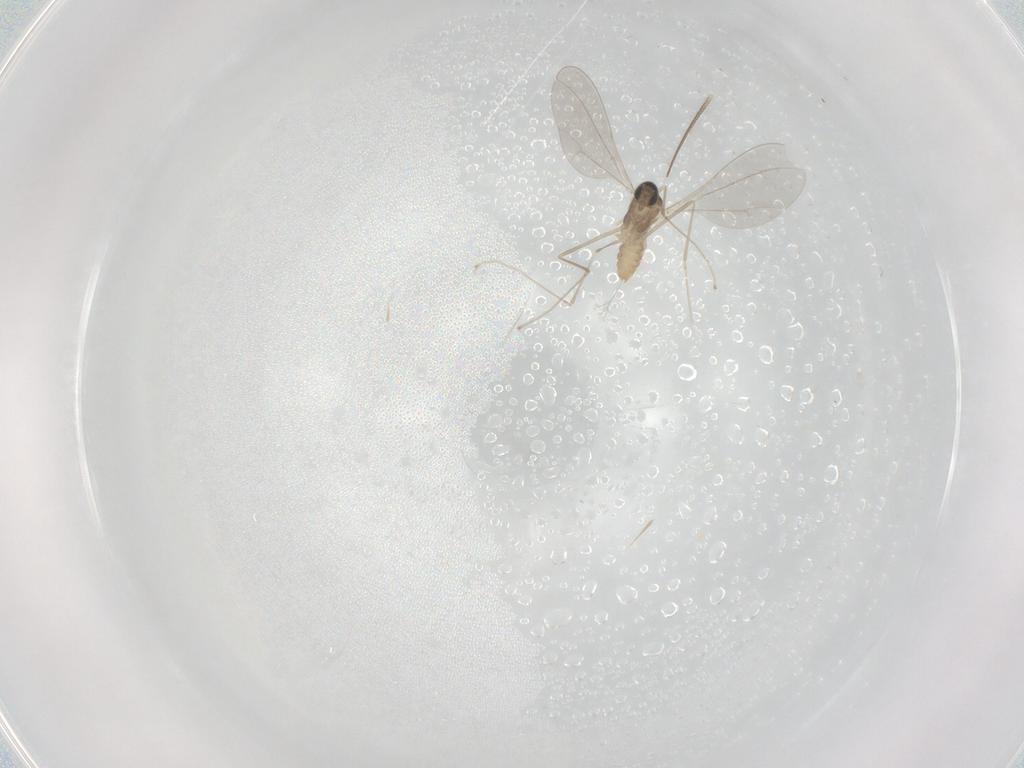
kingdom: Animalia
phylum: Arthropoda
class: Insecta
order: Diptera
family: Cecidomyiidae
